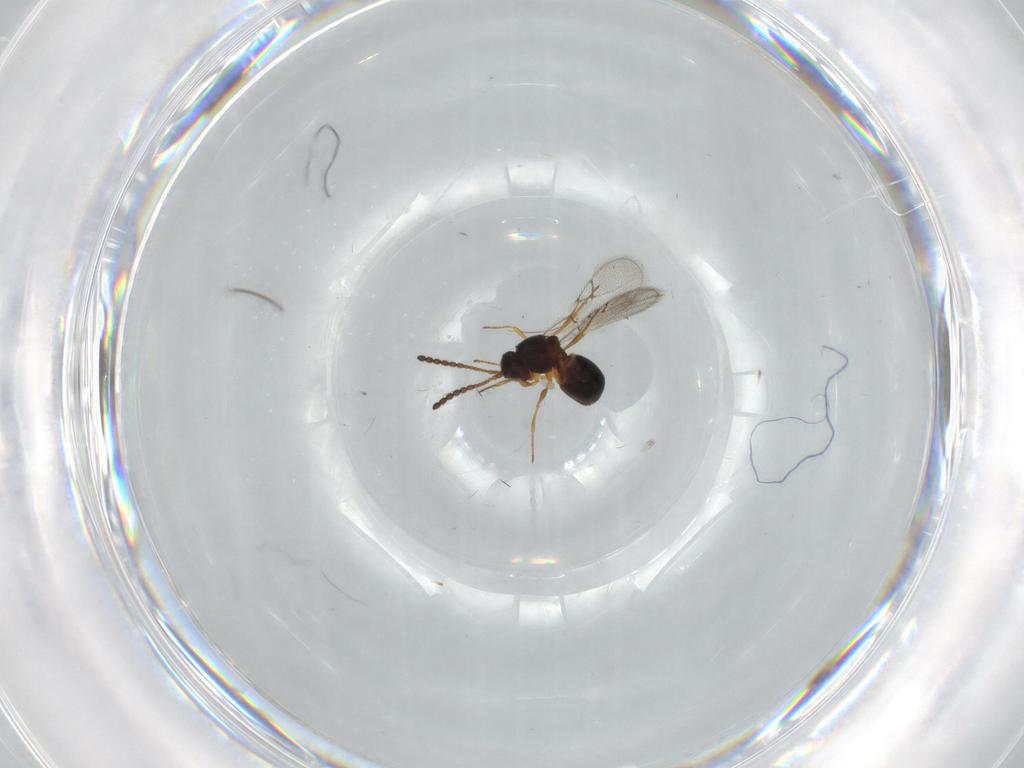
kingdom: Animalia
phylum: Arthropoda
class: Insecta
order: Hymenoptera
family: Figitidae
